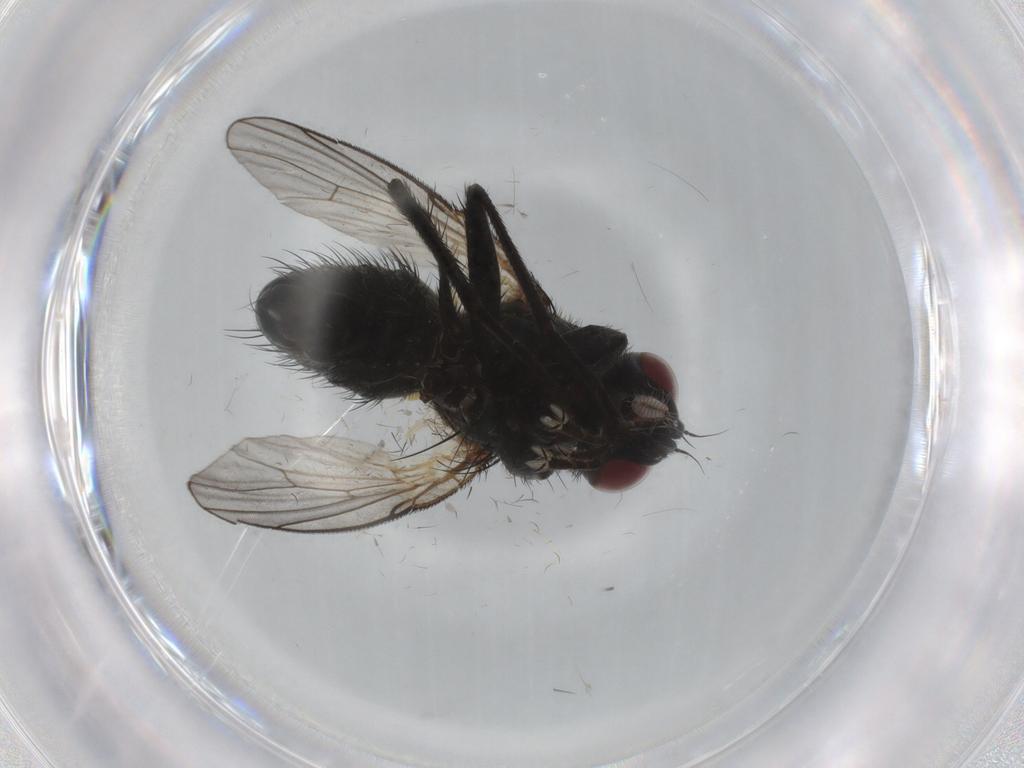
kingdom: Animalia
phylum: Arthropoda
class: Insecta
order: Diptera
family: Muscidae
